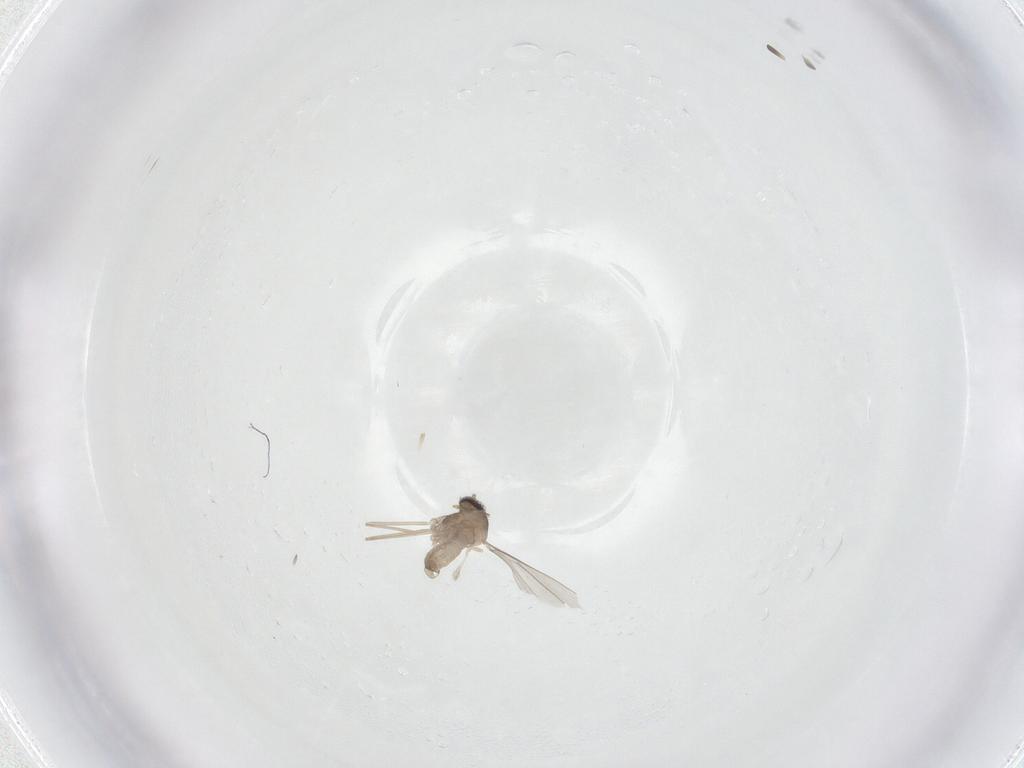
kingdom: Animalia
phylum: Arthropoda
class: Insecta
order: Diptera
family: Cecidomyiidae
